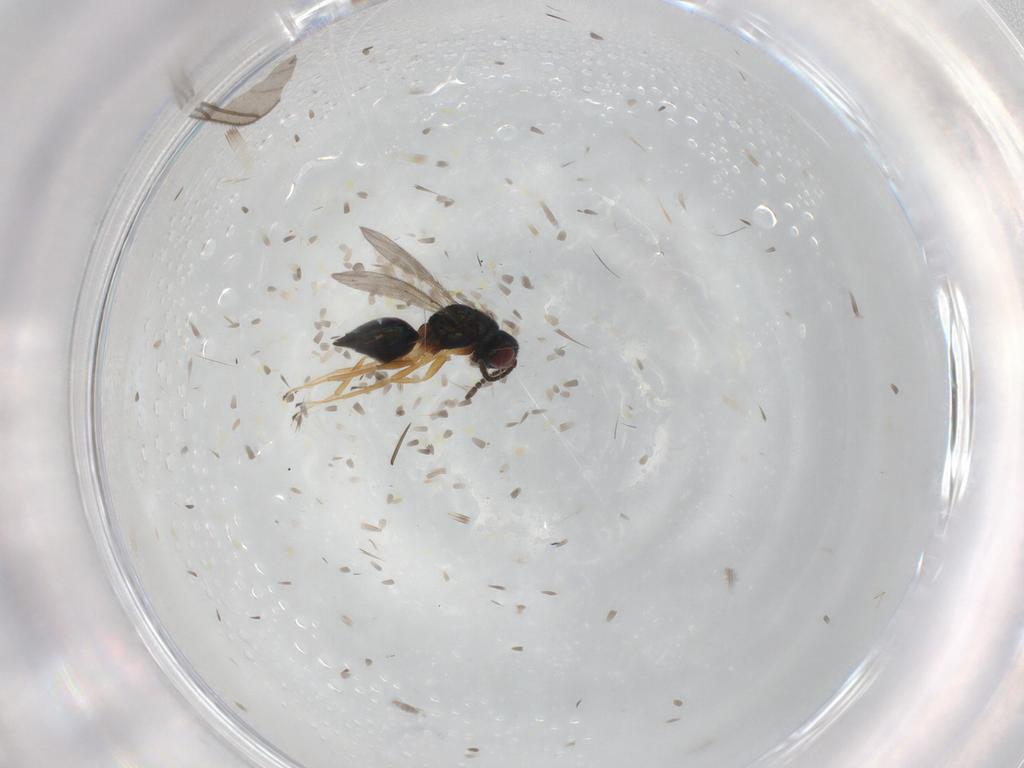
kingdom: Animalia
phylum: Arthropoda
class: Insecta
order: Hymenoptera
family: Tetracampidae
